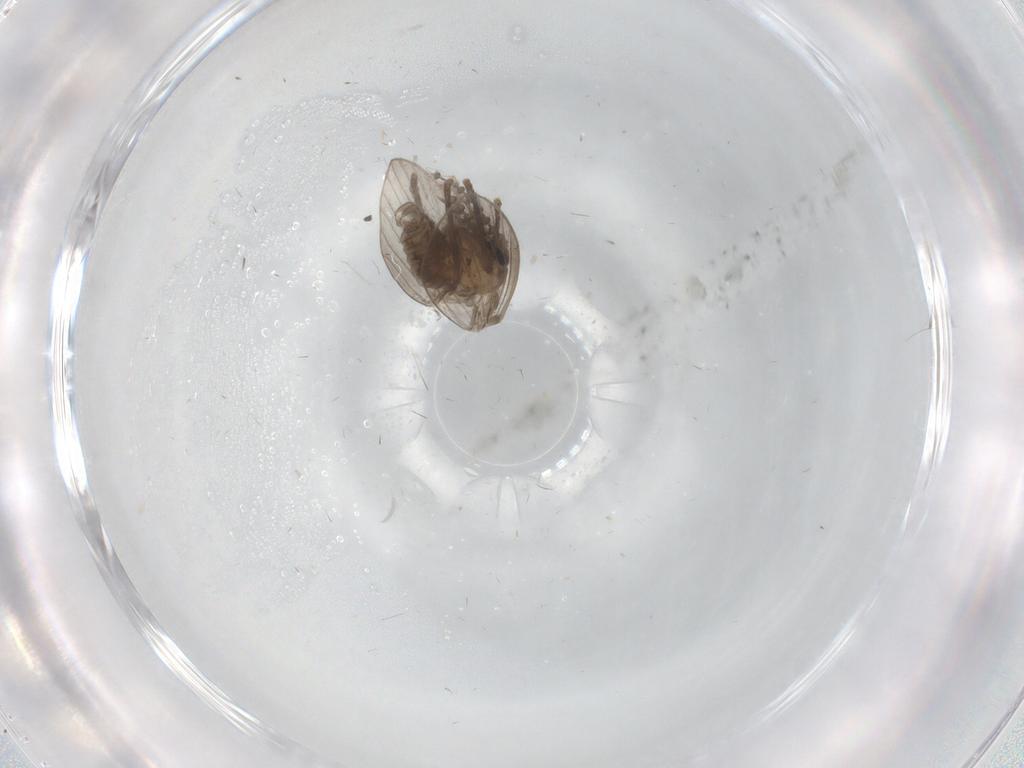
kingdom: Animalia
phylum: Arthropoda
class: Insecta
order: Diptera
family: Psychodidae
